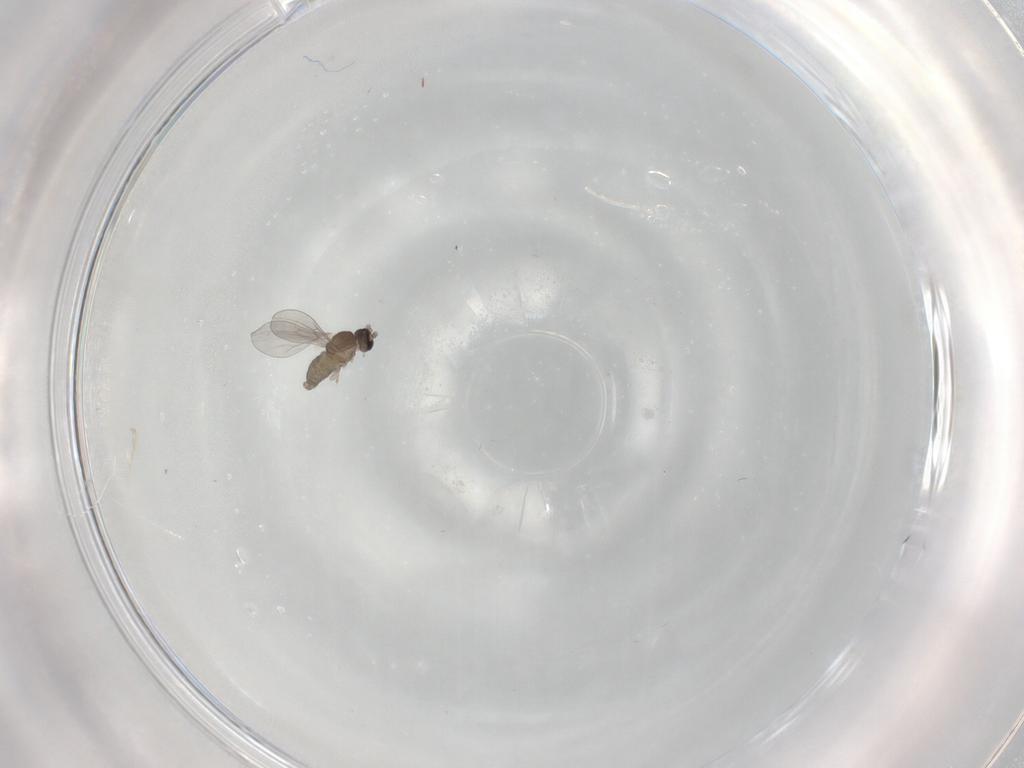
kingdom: Animalia
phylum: Arthropoda
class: Insecta
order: Diptera
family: Cecidomyiidae
